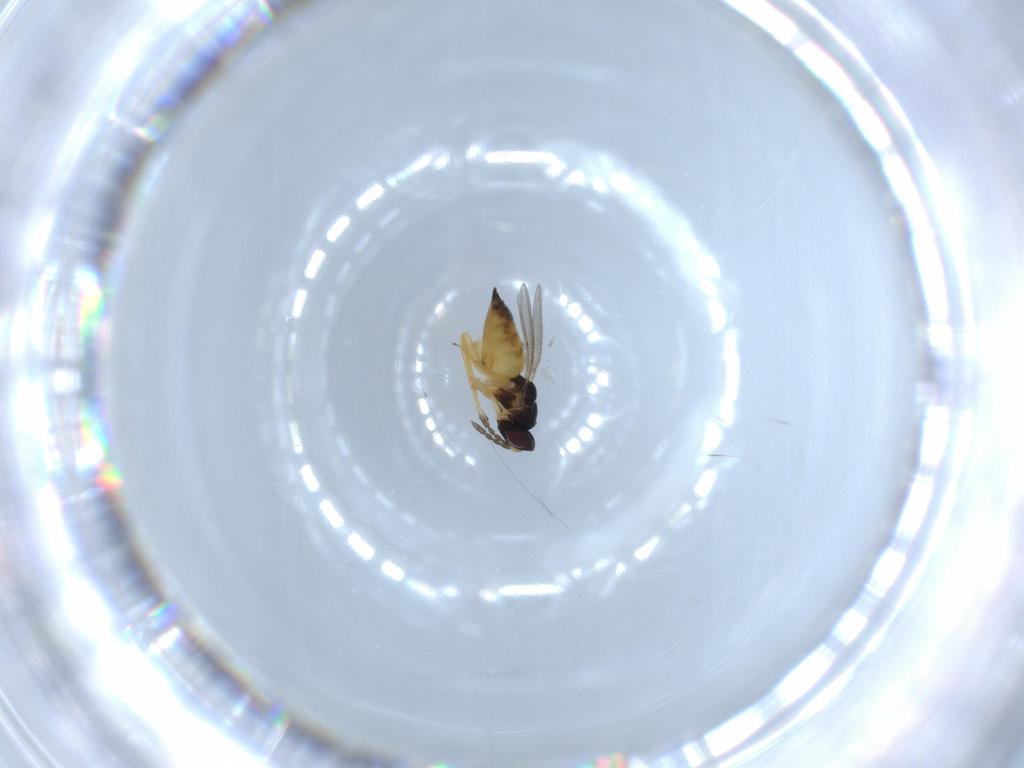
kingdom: Animalia
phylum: Arthropoda
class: Insecta
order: Hymenoptera
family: Eulophidae
